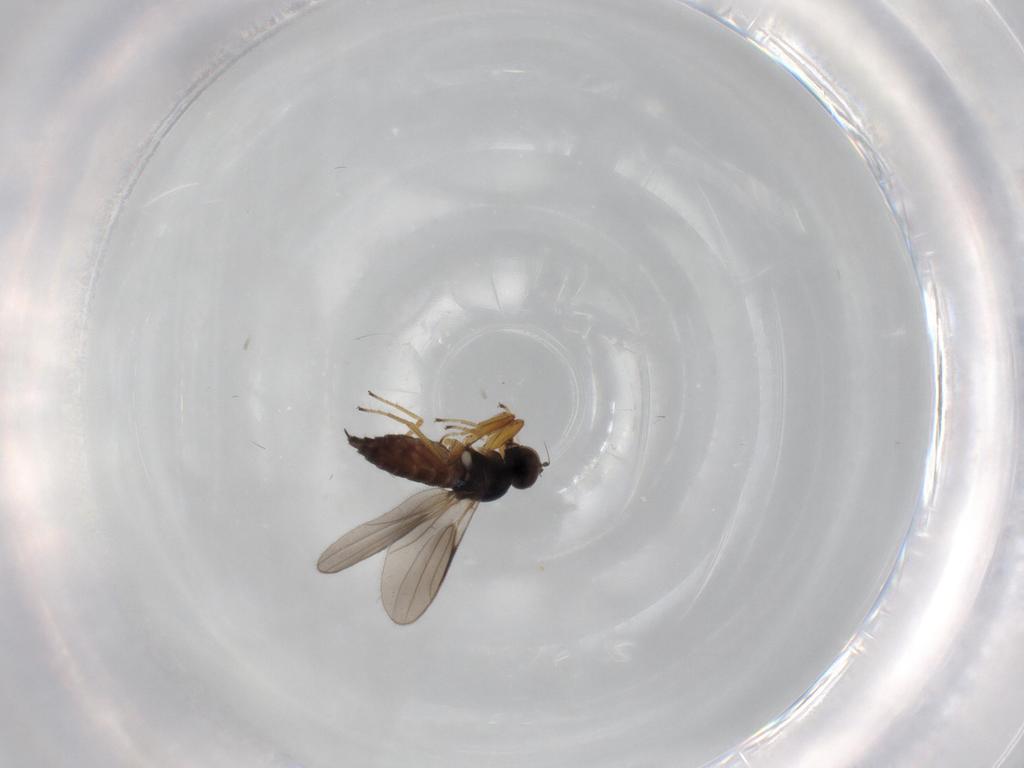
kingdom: Animalia
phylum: Arthropoda
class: Insecta
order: Diptera
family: Hybotidae
